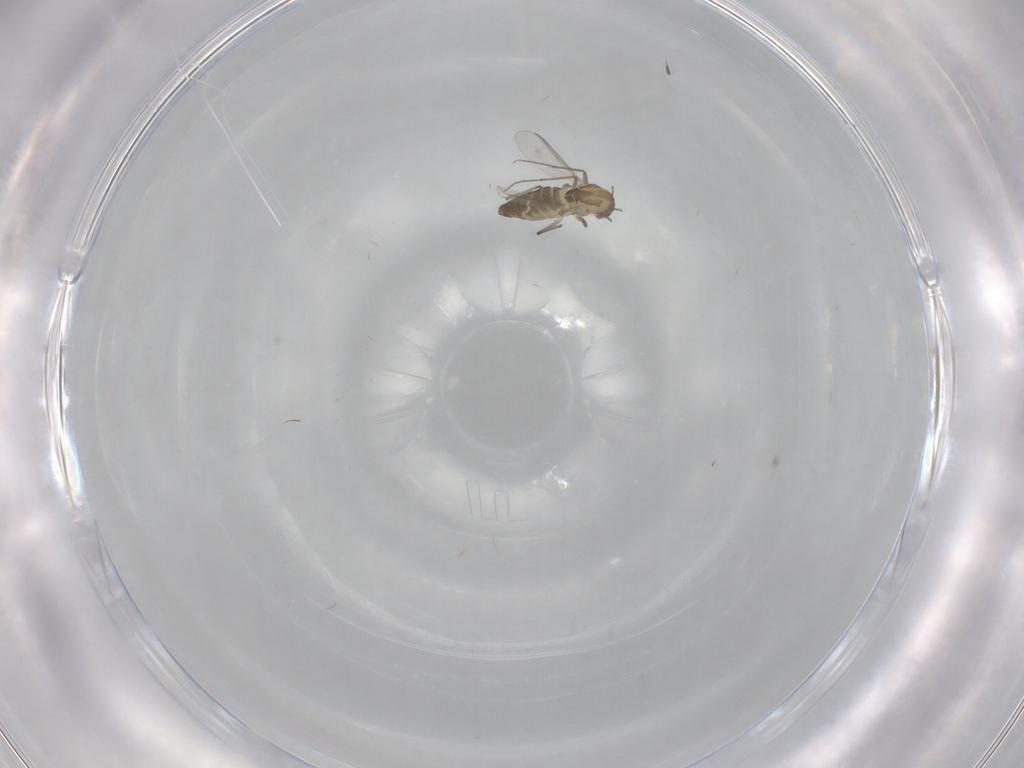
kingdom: Animalia
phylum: Arthropoda
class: Insecta
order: Diptera
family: Chironomidae
